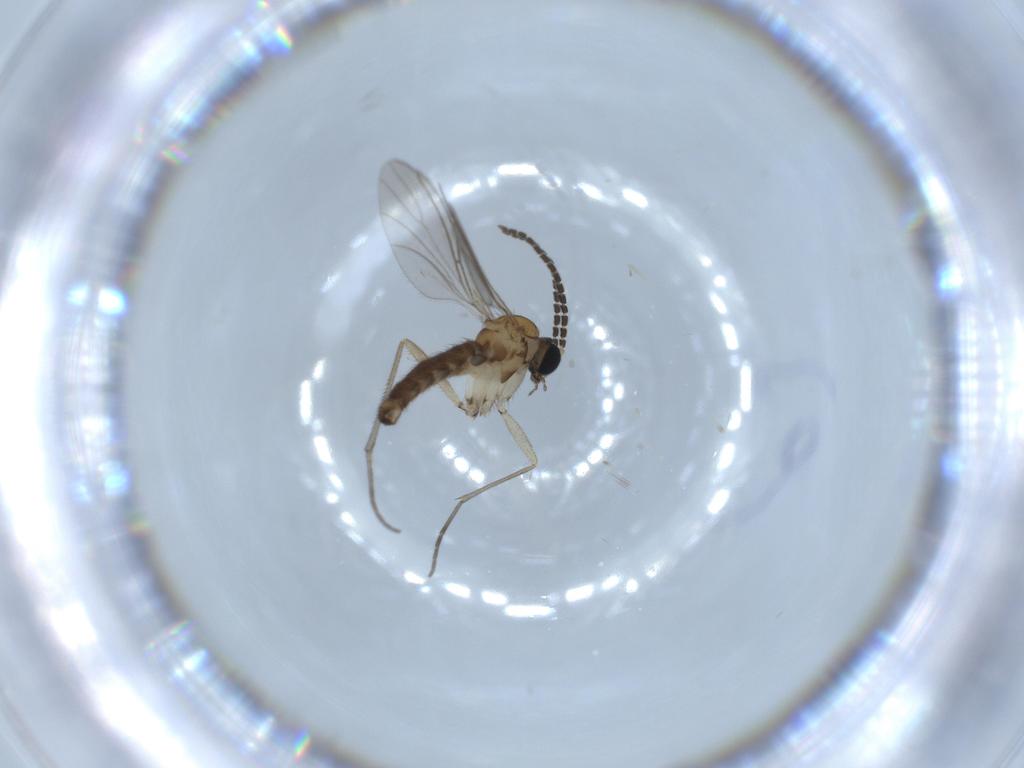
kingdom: Animalia
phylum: Arthropoda
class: Insecta
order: Diptera
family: Sciaridae
